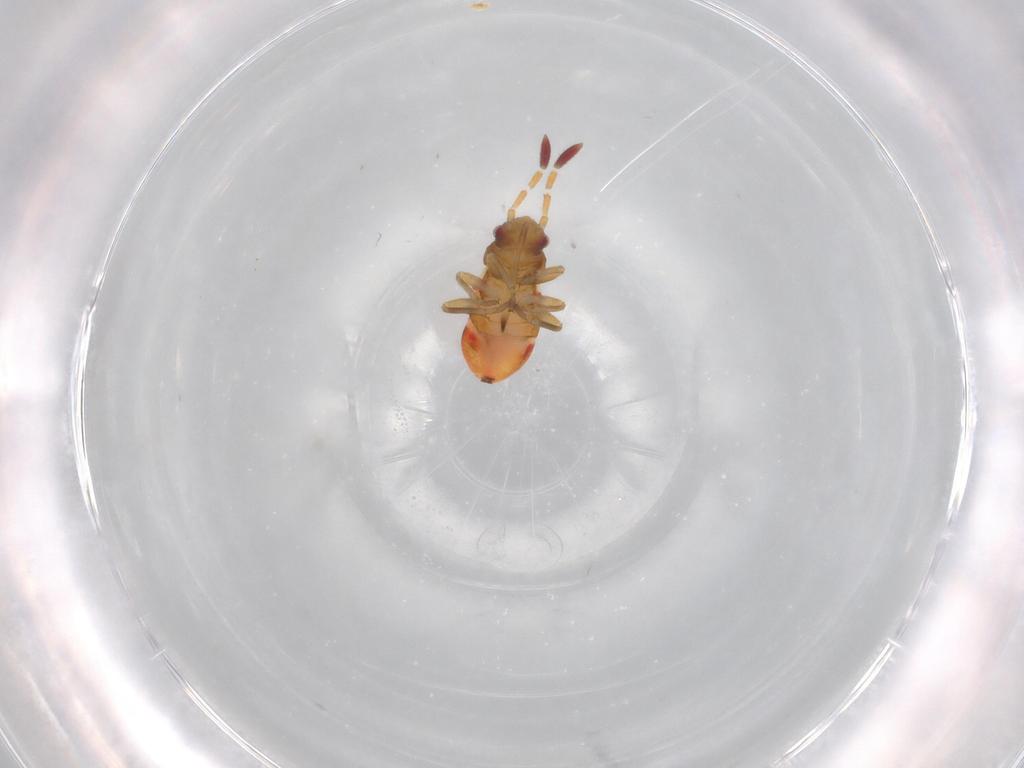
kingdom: Animalia
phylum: Arthropoda
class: Insecta
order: Hemiptera
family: Rhyparochromidae
